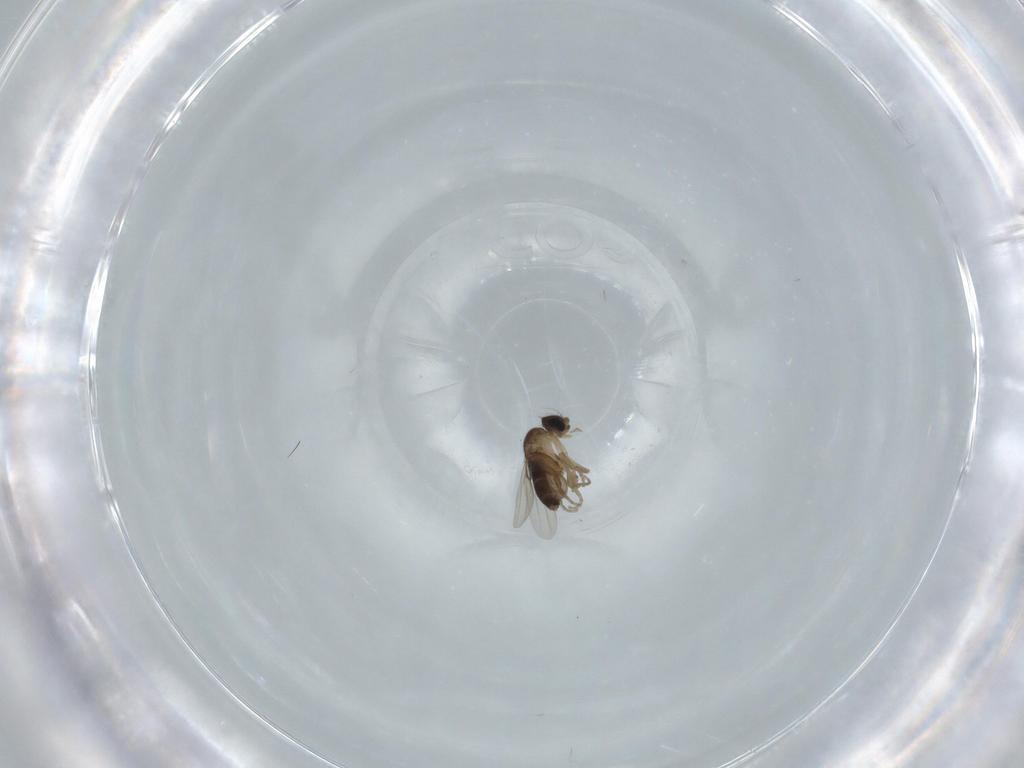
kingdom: Animalia
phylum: Arthropoda
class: Insecta
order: Diptera
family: Phoridae
